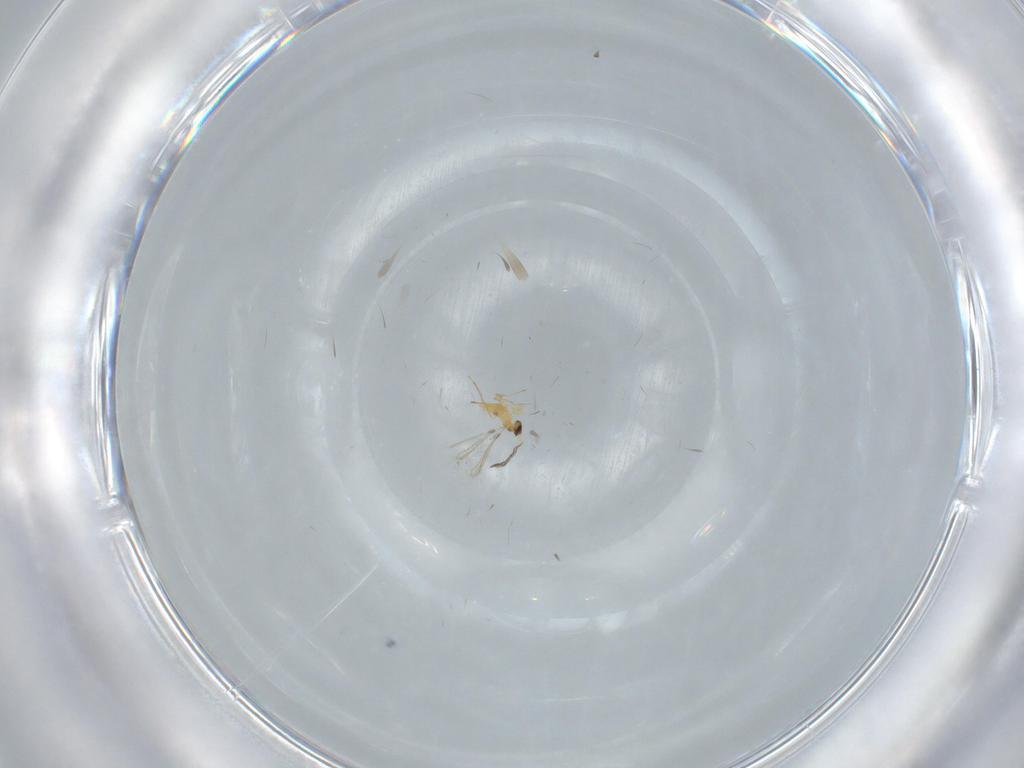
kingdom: Animalia
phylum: Arthropoda
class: Insecta
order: Hymenoptera
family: Mymaridae
